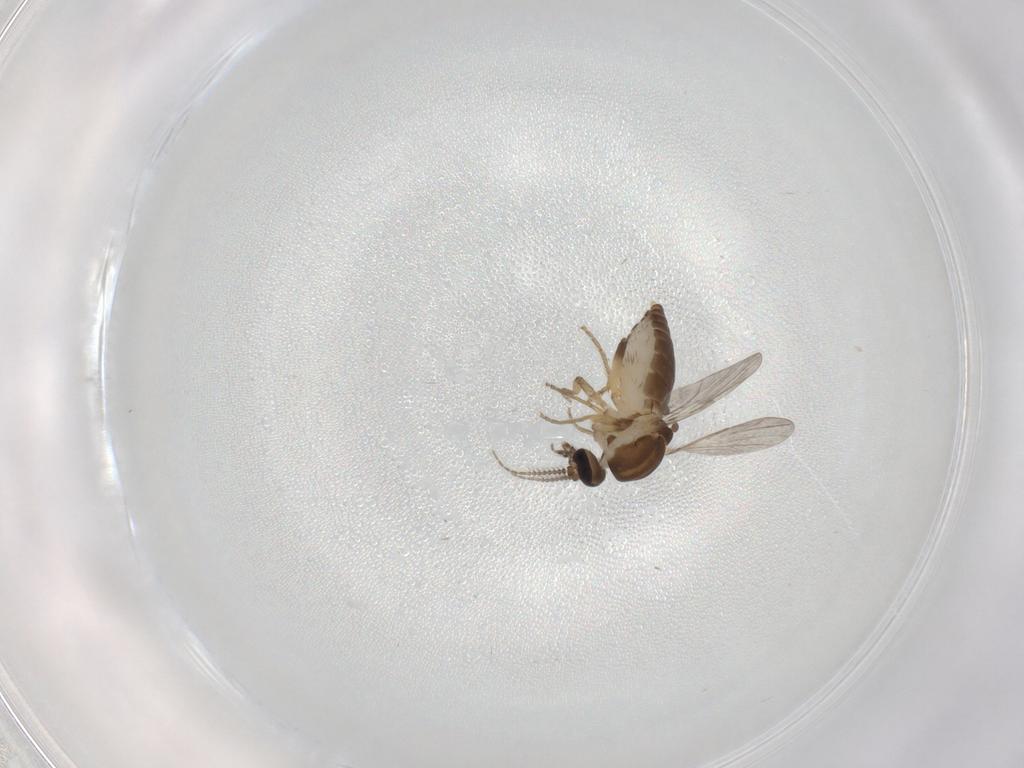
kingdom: Animalia
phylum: Arthropoda
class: Insecta
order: Diptera
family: Ceratopogonidae
